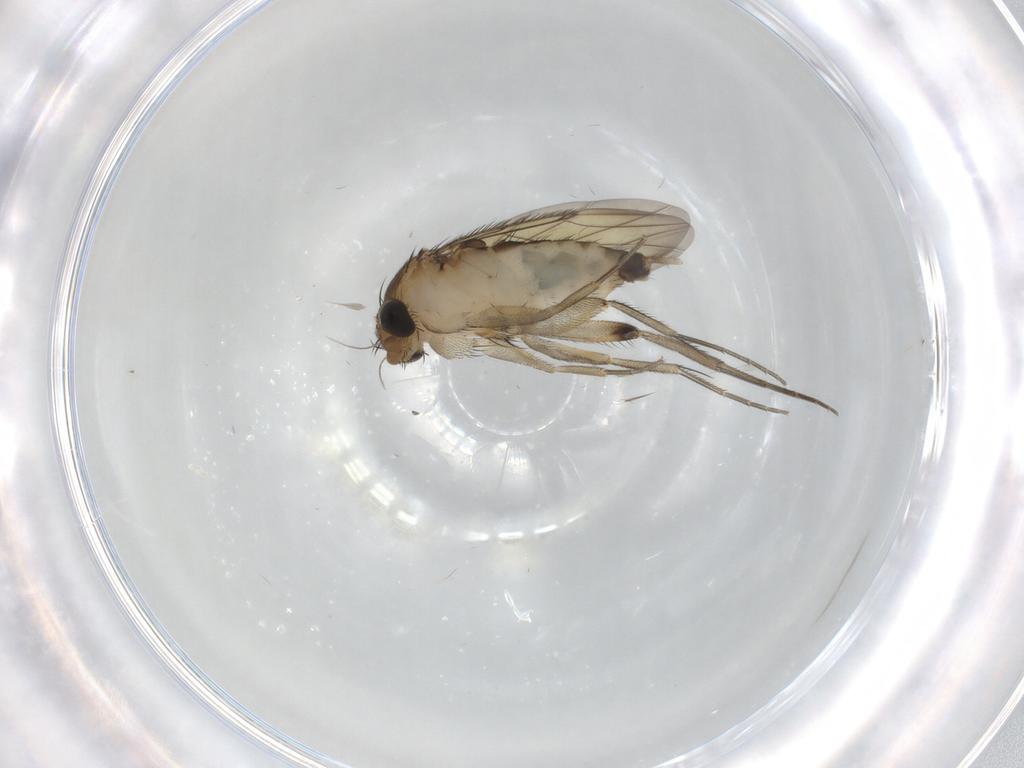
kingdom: Animalia
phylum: Arthropoda
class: Insecta
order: Diptera
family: Phoridae
